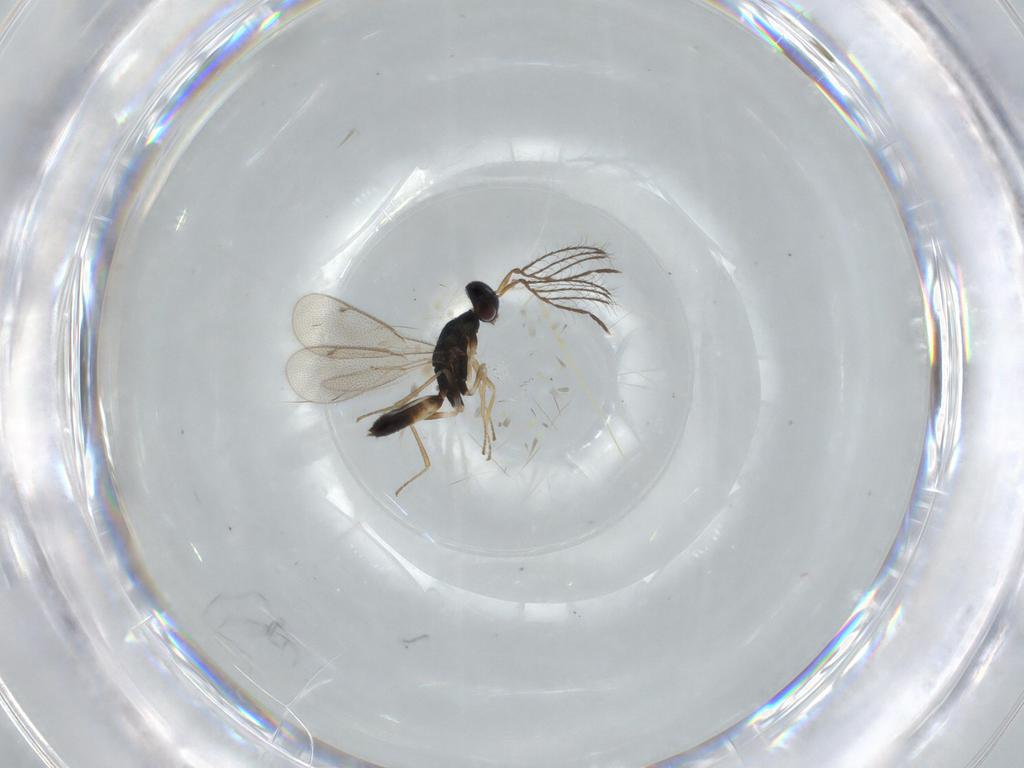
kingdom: Animalia
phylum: Arthropoda
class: Insecta
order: Hymenoptera
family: Eulophidae
